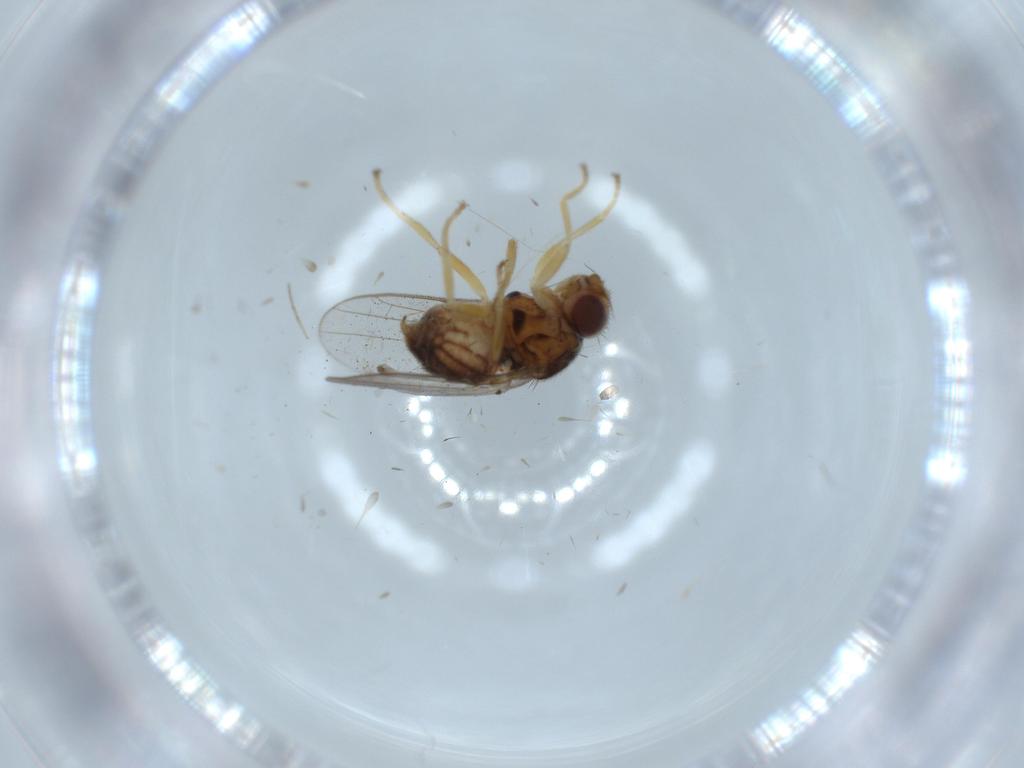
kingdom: Animalia
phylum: Arthropoda
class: Insecta
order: Diptera
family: Chloropidae
